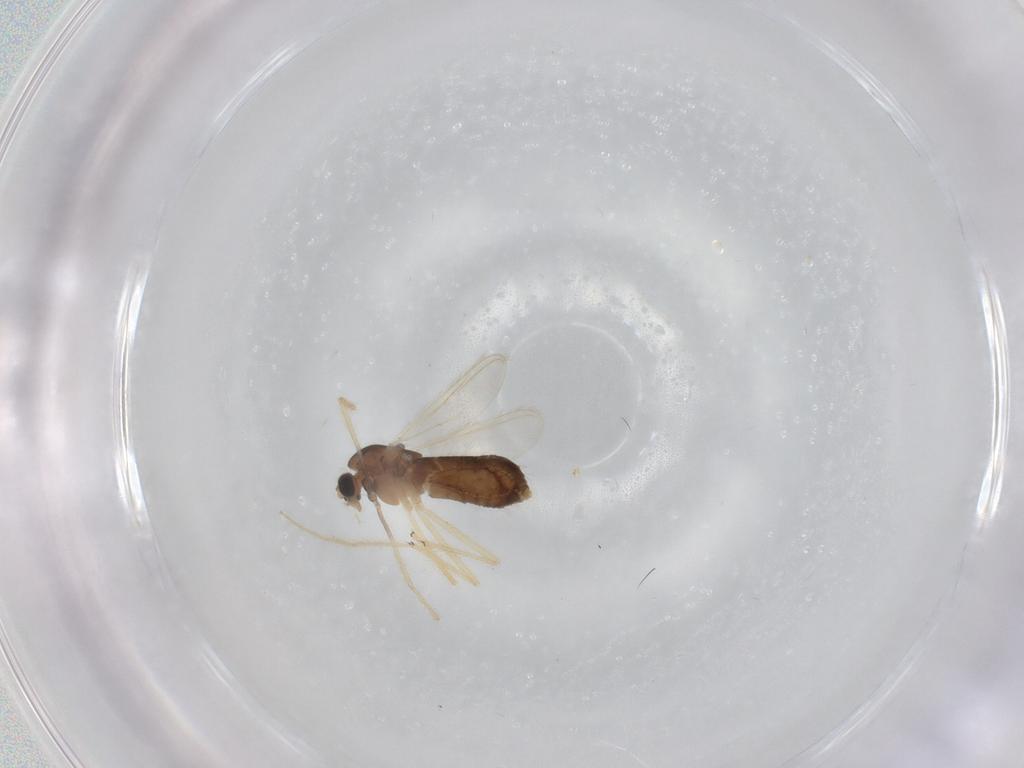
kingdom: Animalia
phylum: Arthropoda
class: Insecta
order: Diptera
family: Chironomidae
